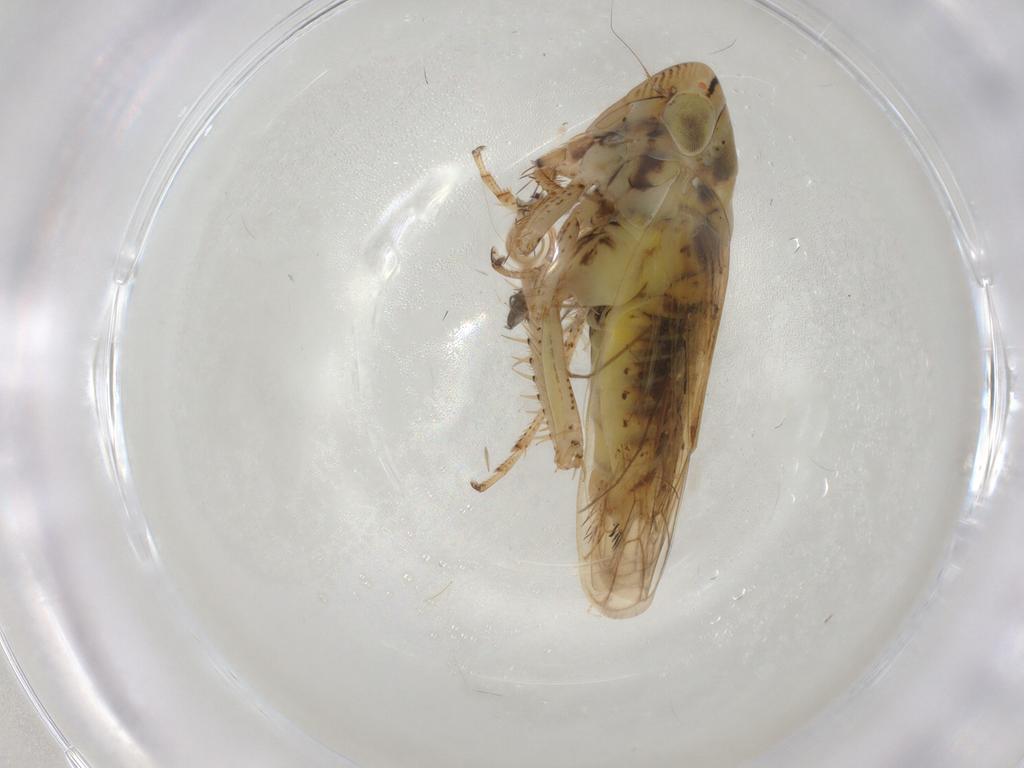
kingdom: Animalia
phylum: Arthropoda
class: Insecta
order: Hemiptera
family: Cicadellidae
